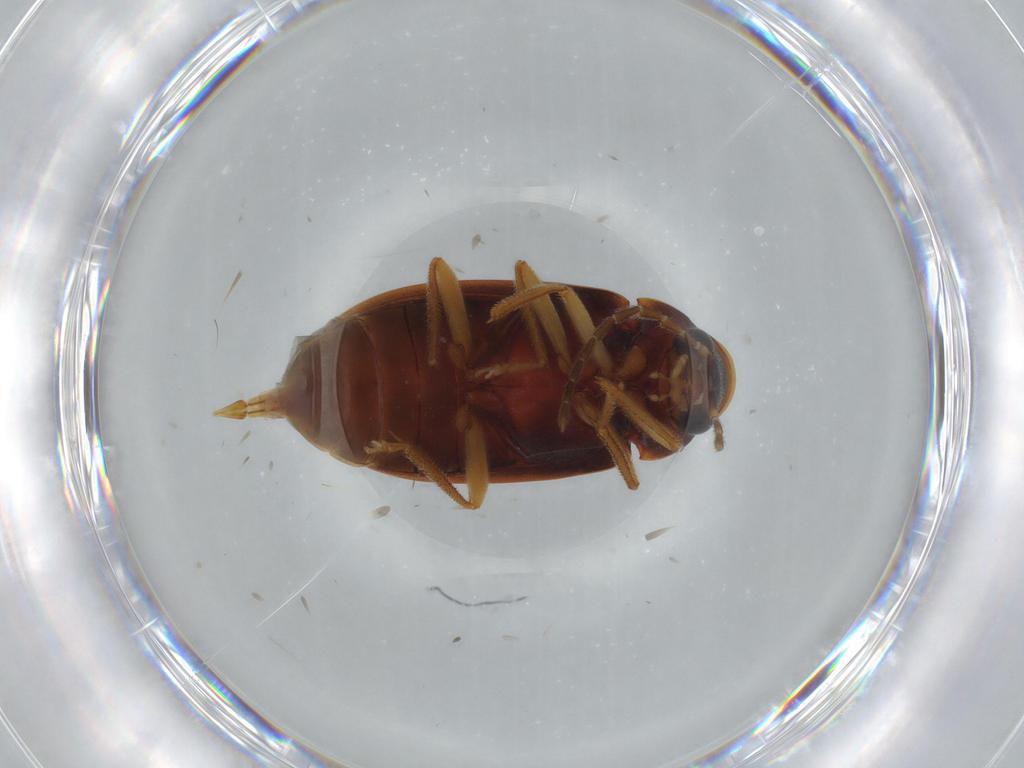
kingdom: Animalia
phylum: Arthropoda
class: Insecta
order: Coleoptera
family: Ptilodactylidae
